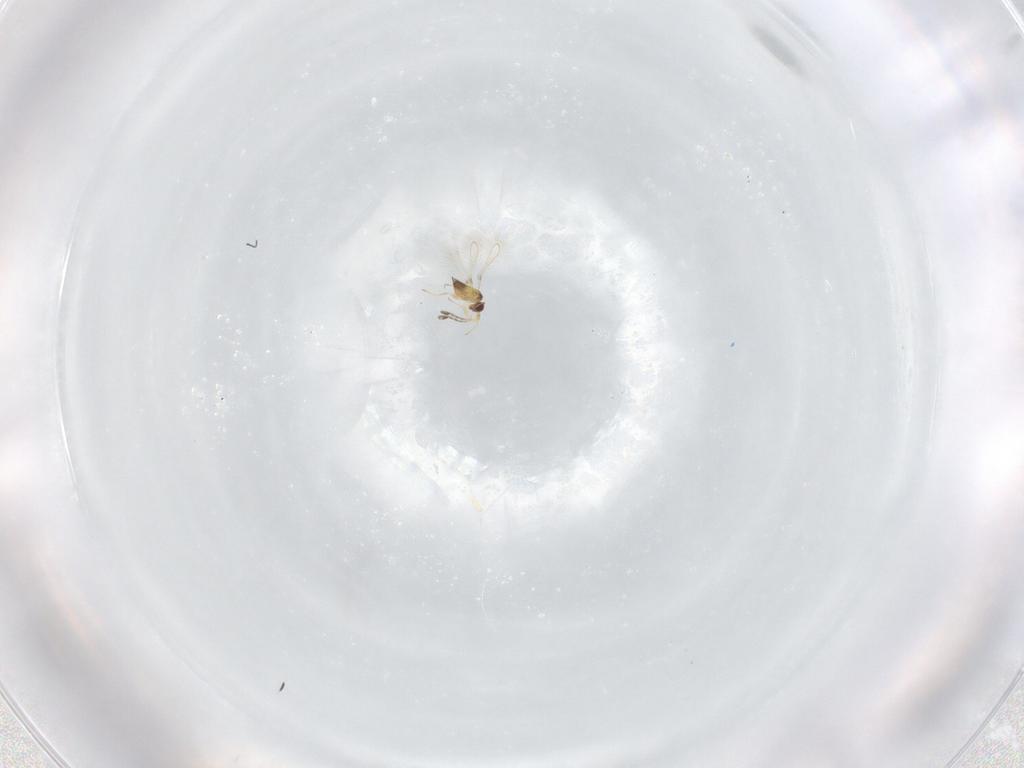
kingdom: Animalia
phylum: Arthropoda
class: Insecta
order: Hymenoptera
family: Mymaridae
